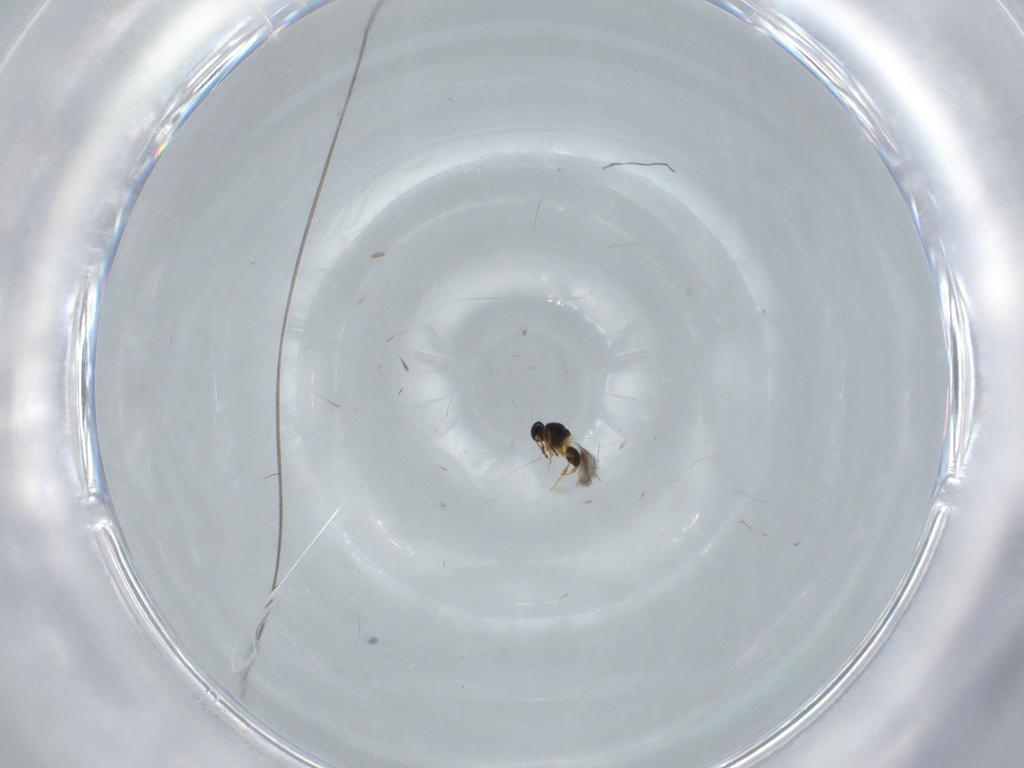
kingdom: Animalia
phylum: Arthropoda
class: Insecta
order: Hymenoptera
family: Platygastridae
